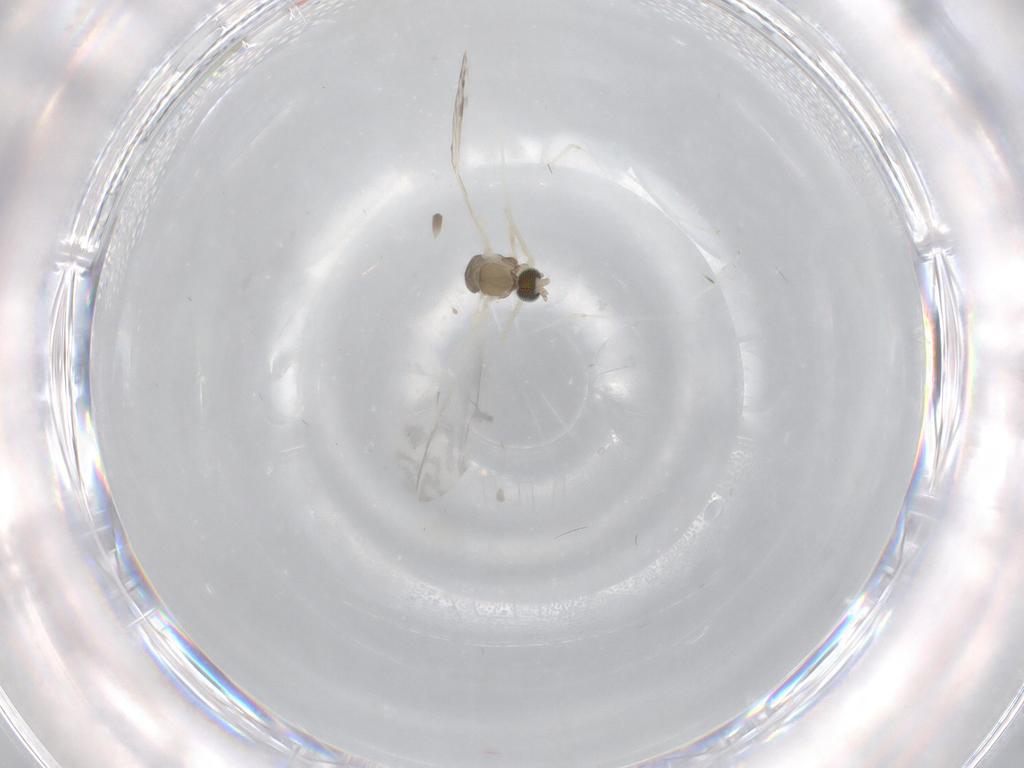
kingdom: Animalia
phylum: Arthropoda
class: Insecta
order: Diptera
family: Cecidomyiidae
